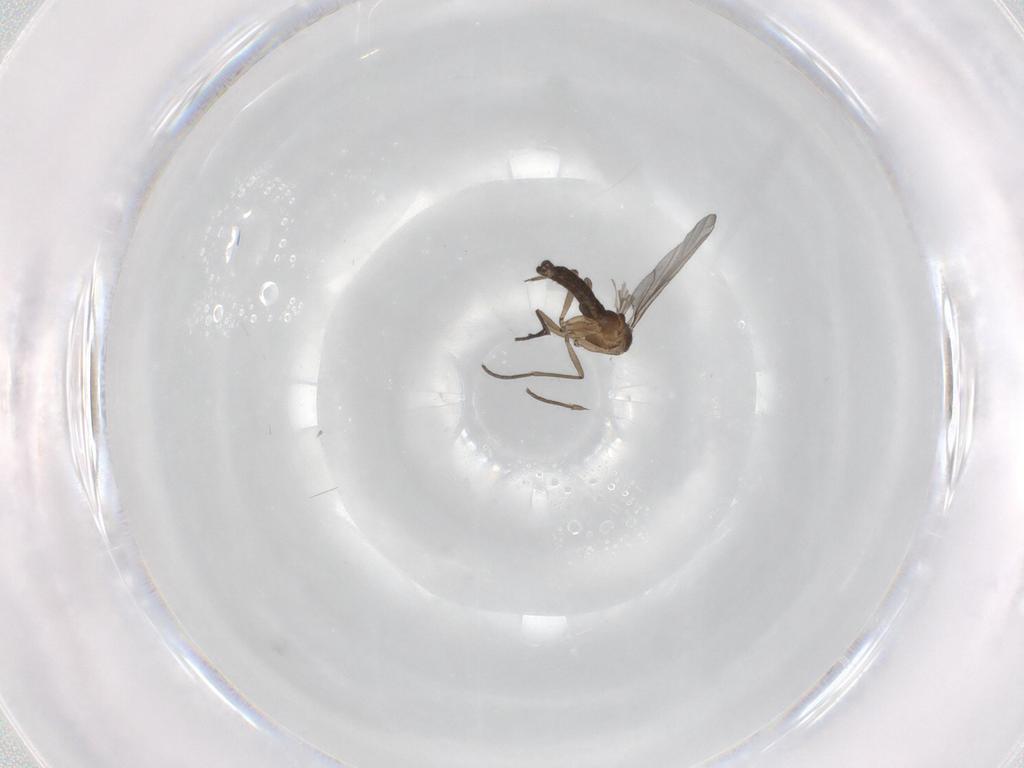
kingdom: Animalia
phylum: Arthropoda
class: Insecta
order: Diptera
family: Sciaridae
